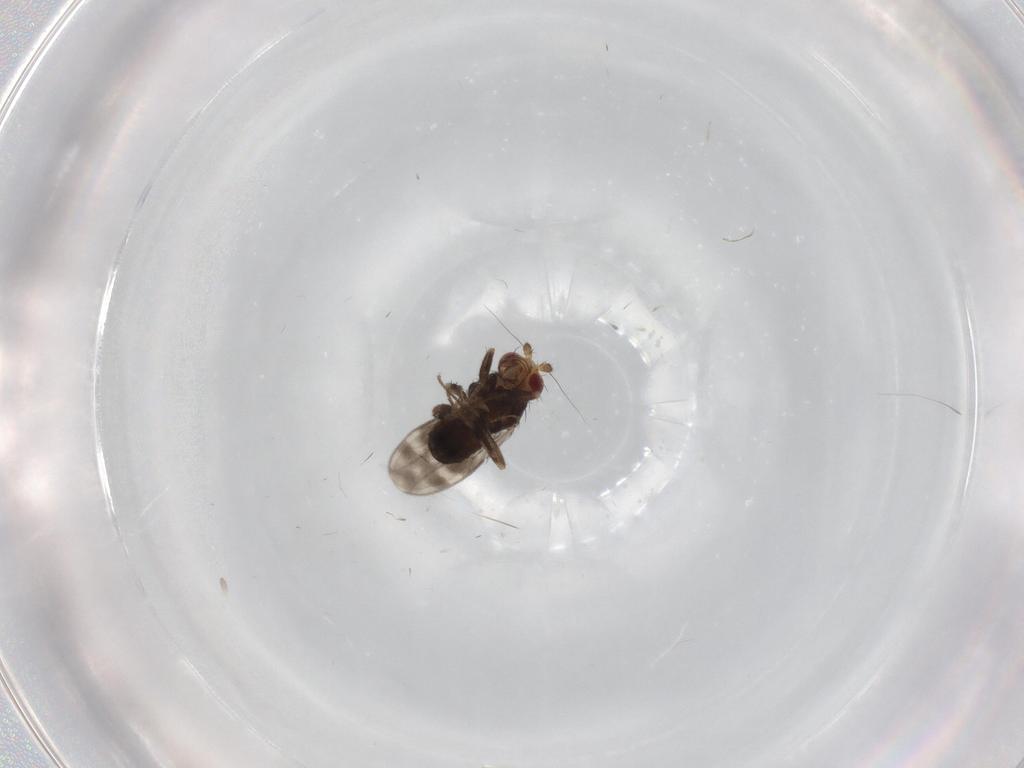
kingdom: Animalia
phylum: Arthropoda
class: Insecta
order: Diptera
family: Sphaeroceridae
